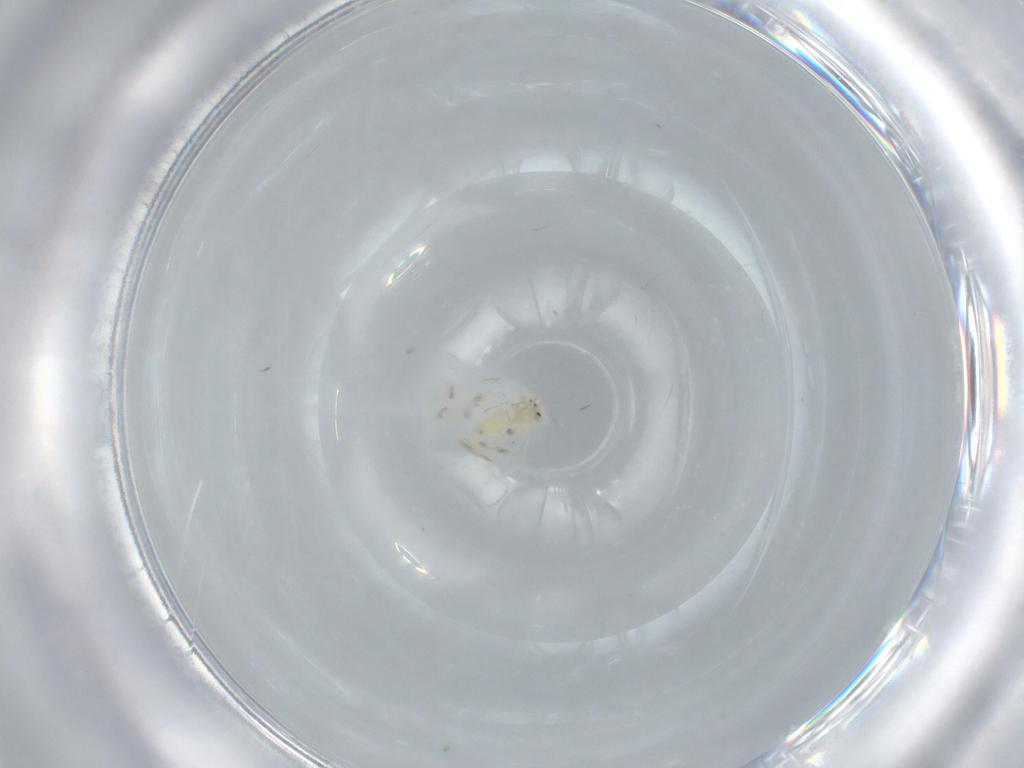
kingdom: Animalia
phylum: Arthropoda
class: Insecta
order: Hemiptera
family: Aleyrodidae
